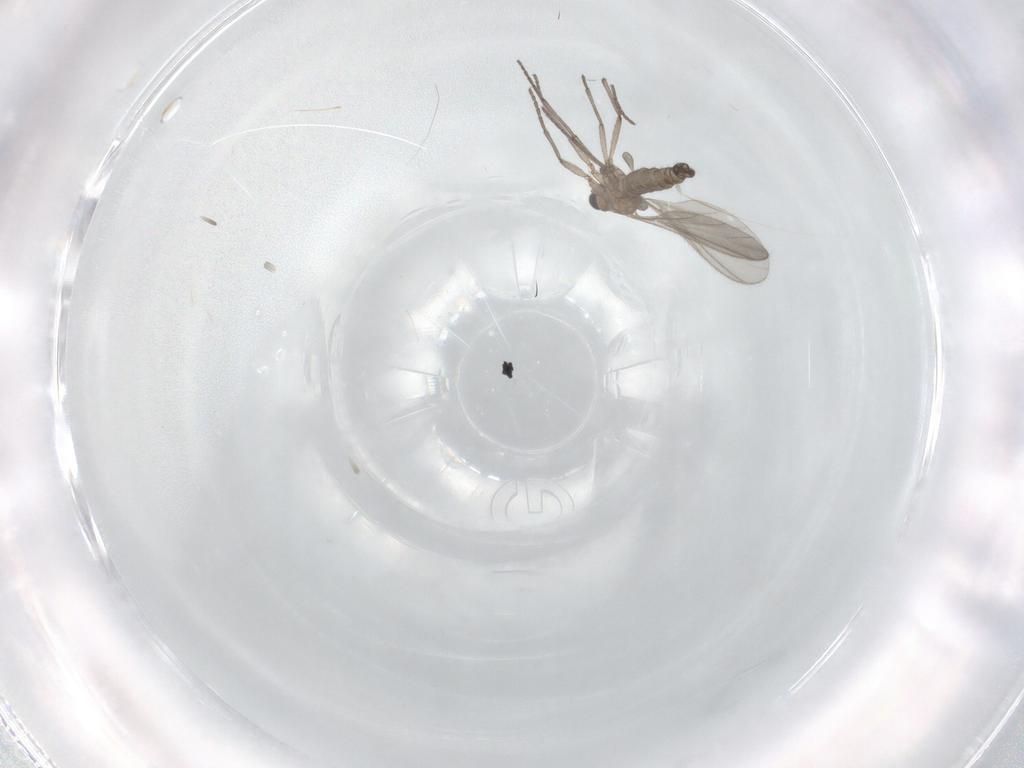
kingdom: Animalia
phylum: Arthropoda
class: Insecta
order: Diptera
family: Sciaridae
